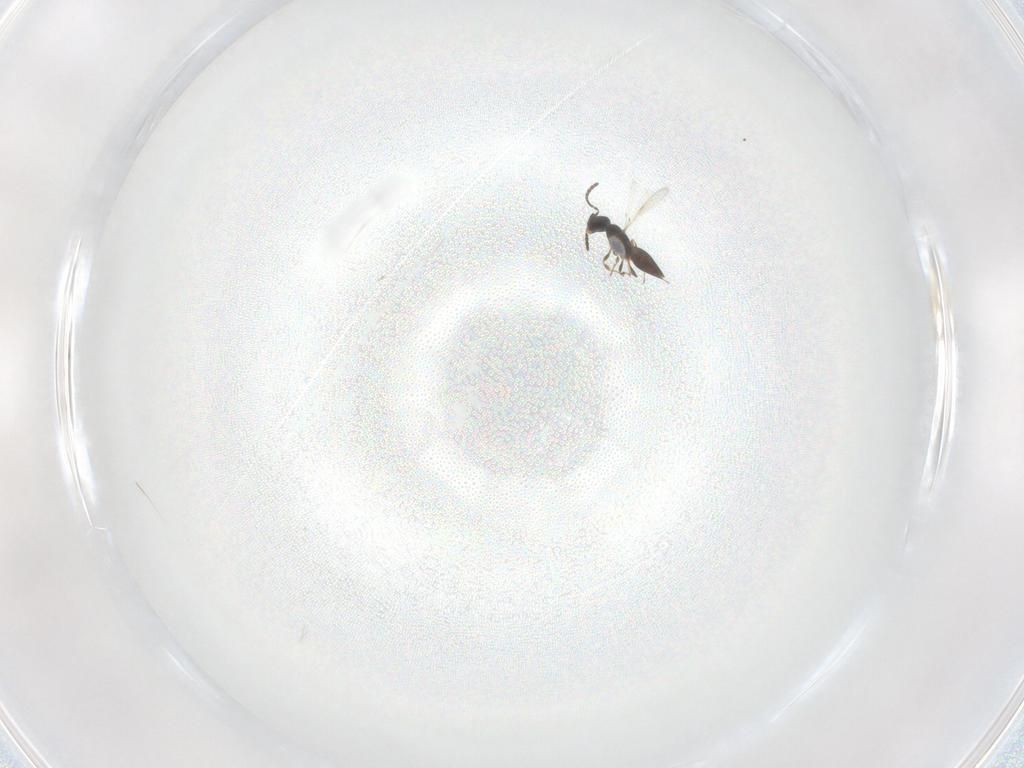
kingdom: Animalia
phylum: Arthropoda
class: Insecta
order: Hymenoptera
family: Scelionidae
